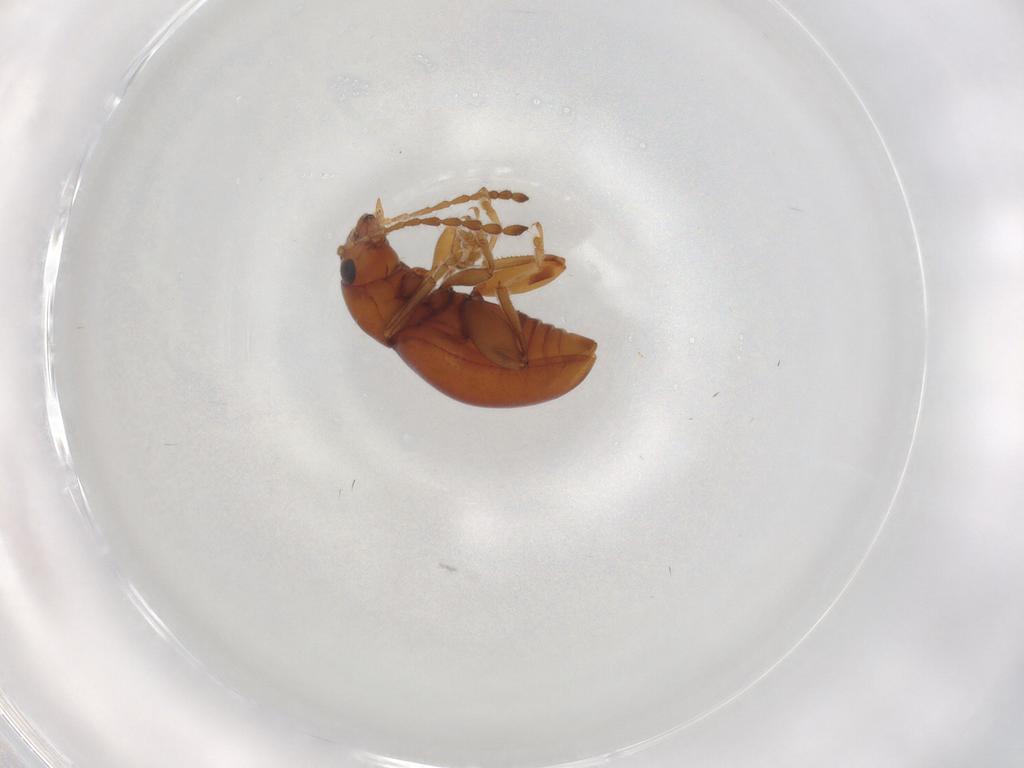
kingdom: Animalia
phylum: Arthropoda
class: Insecta
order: Coleoptera
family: Chrysomelidae
